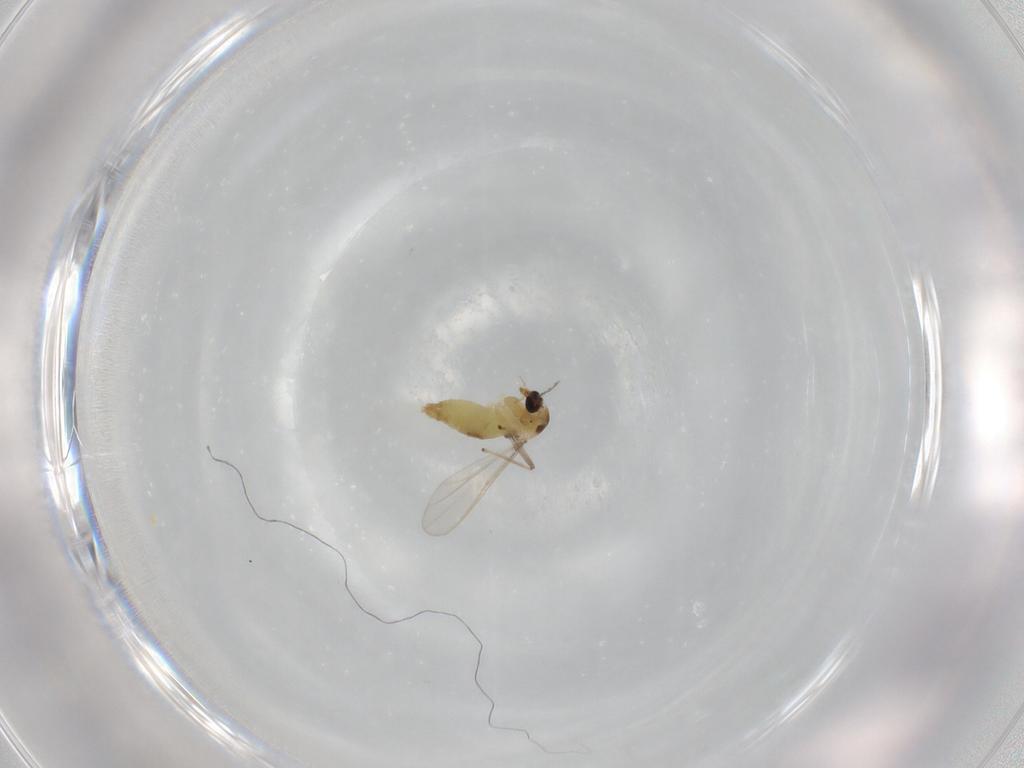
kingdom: Animalia
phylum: Arthropoda
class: Insecta
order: Diptera
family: Chironomidae
